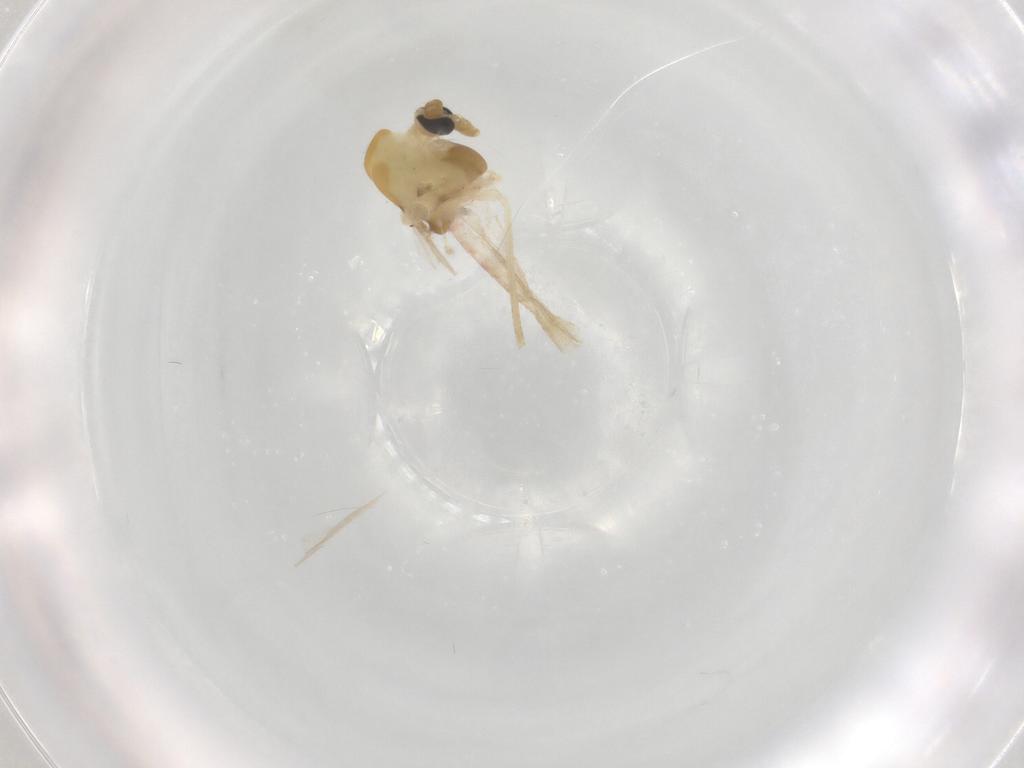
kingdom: Animalia
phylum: Arthropoda
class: Insecta
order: Diptera
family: Chironomidae
